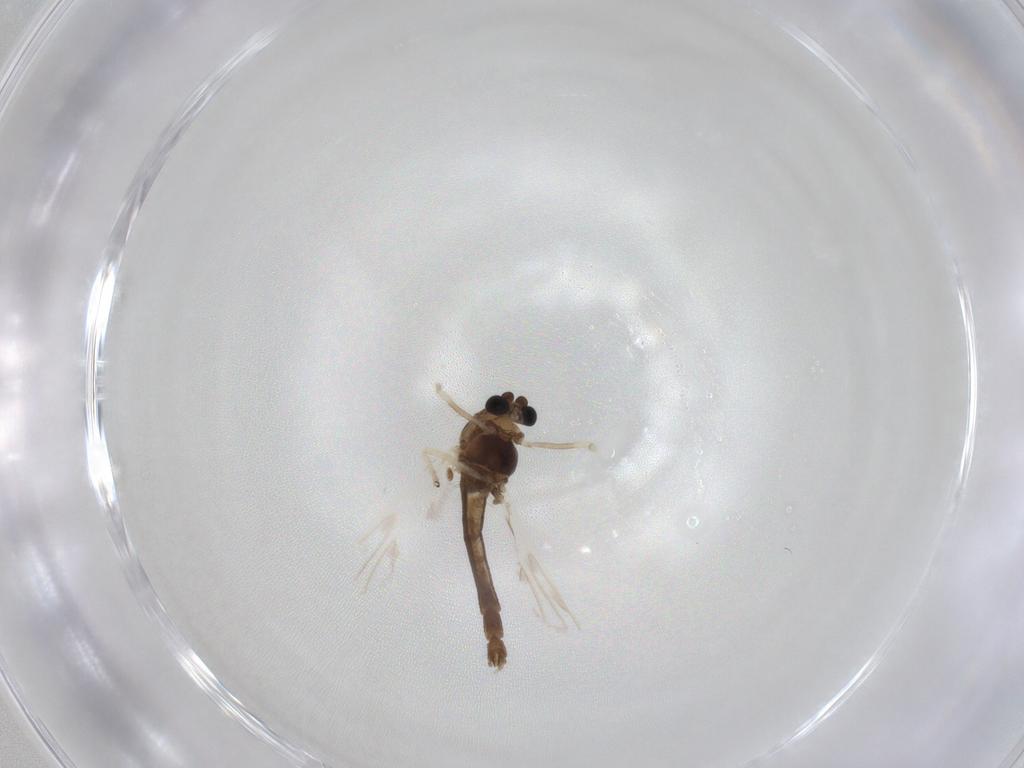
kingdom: Animalia
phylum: Arthropoda
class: Insecta
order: Diptera
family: Chironomidae
